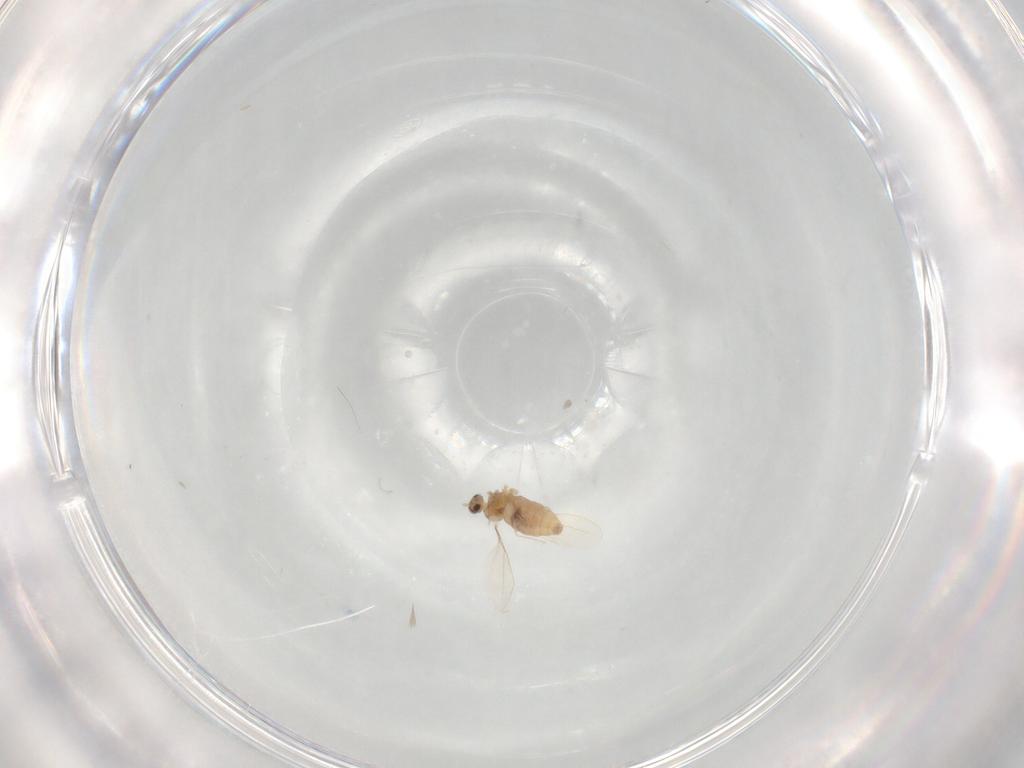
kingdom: Animalia
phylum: Arthropoda
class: Insecta
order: Diptera
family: Cecidomyiidae
